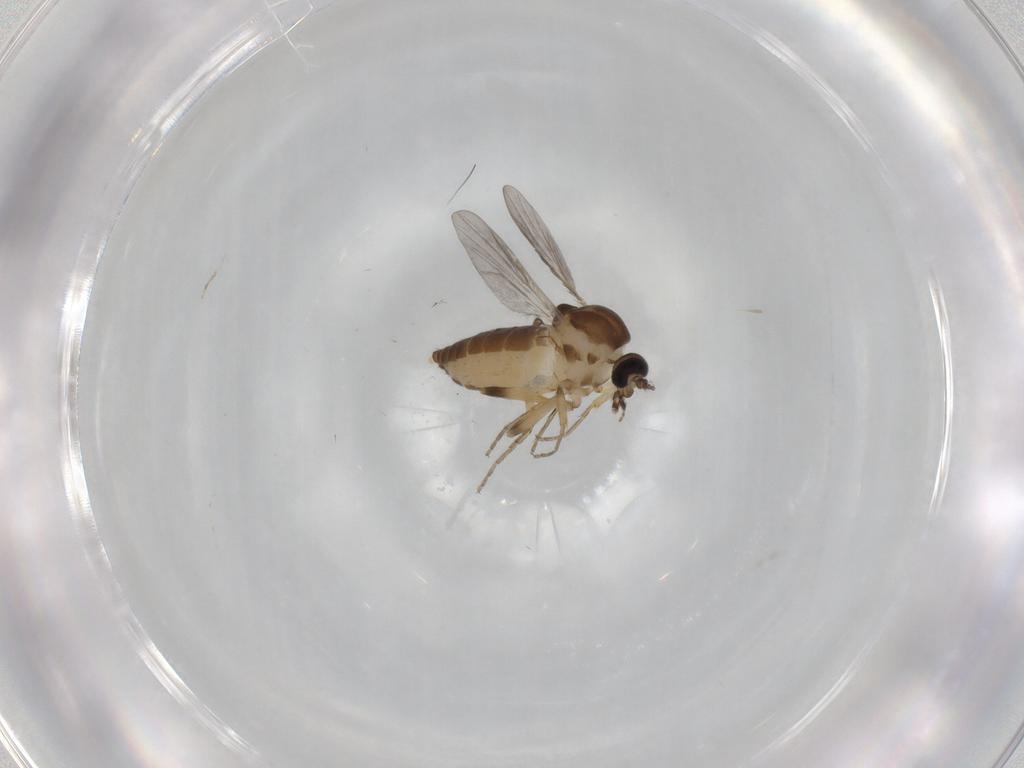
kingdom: Animalia
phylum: Arthropoda
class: Insecta
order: Diptera
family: Ceratopogonidae
